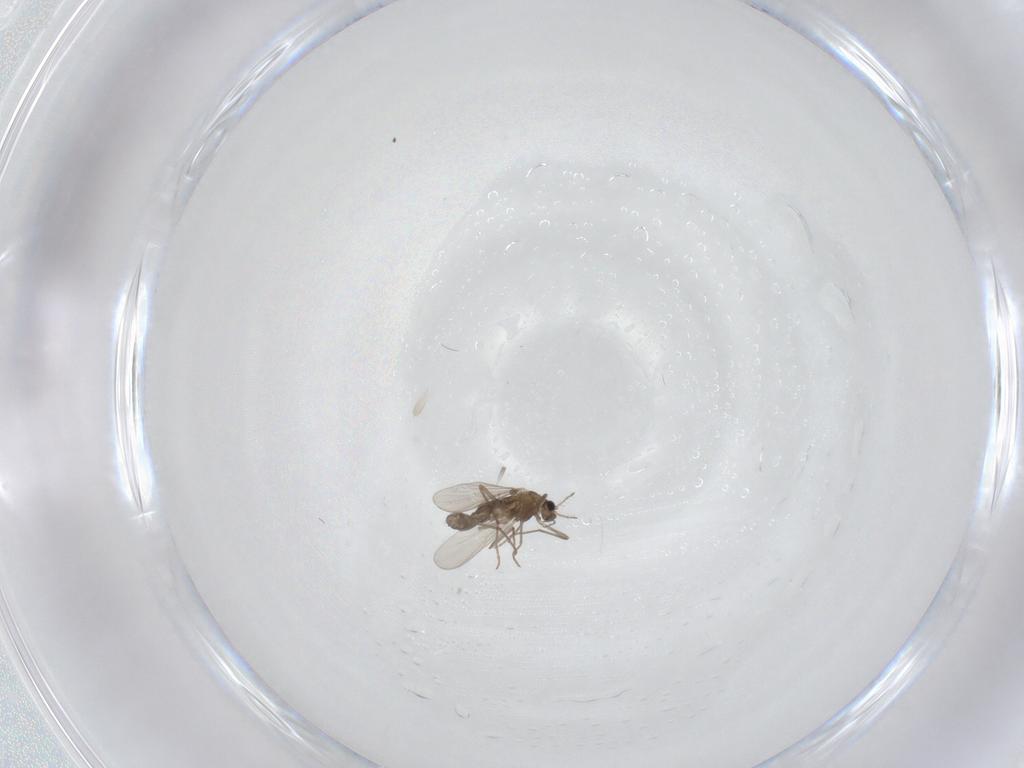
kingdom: Animalia
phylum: Arthropoda
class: Insecta
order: Diptera
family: Chironomidae
